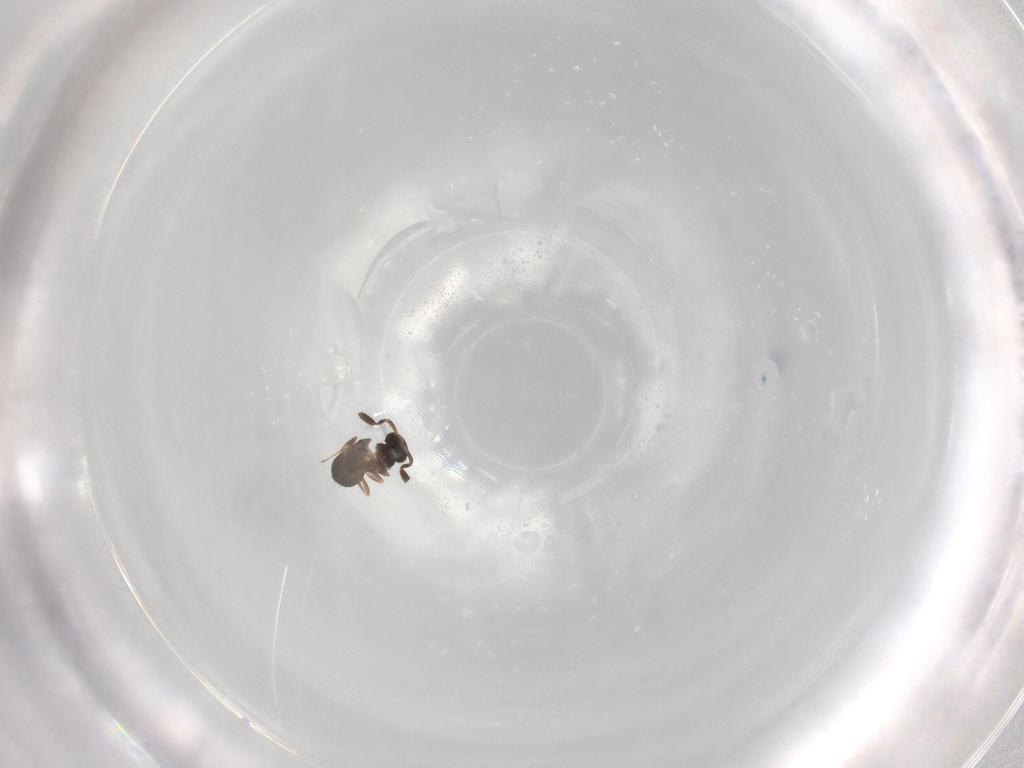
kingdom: Animalia
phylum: Arthropoda
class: Insecta
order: Hymenoptera
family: Scelionidae
